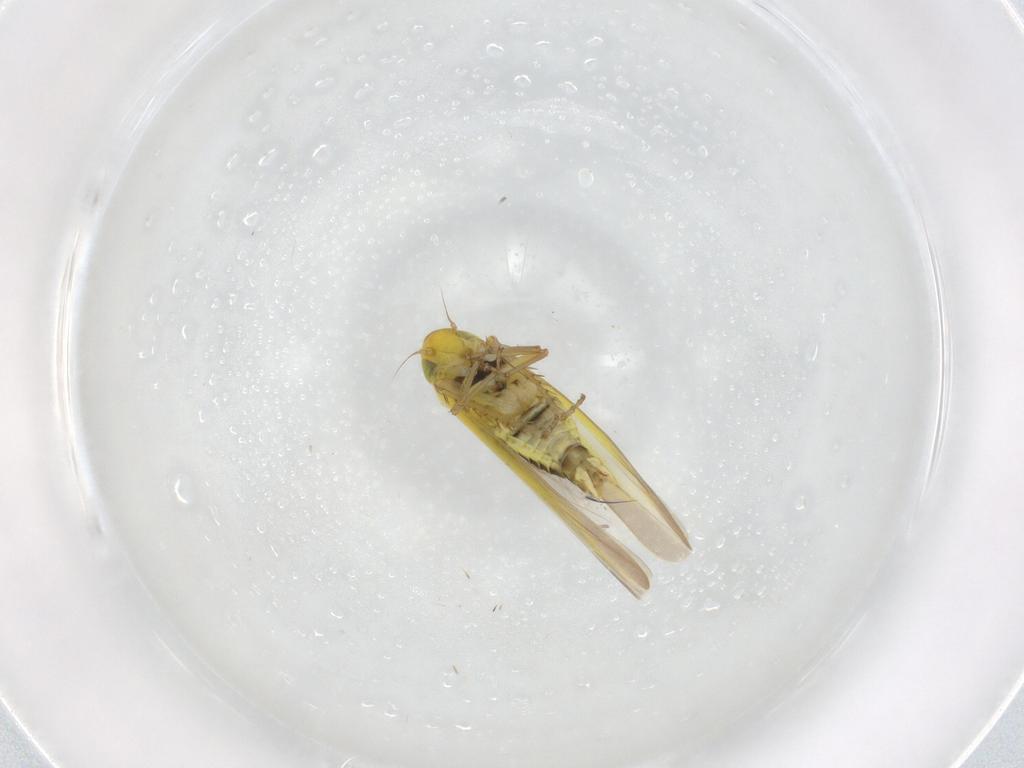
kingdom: Animalia
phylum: Arthropoda
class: Insecta
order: Hemiptera
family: Cicadellidae
